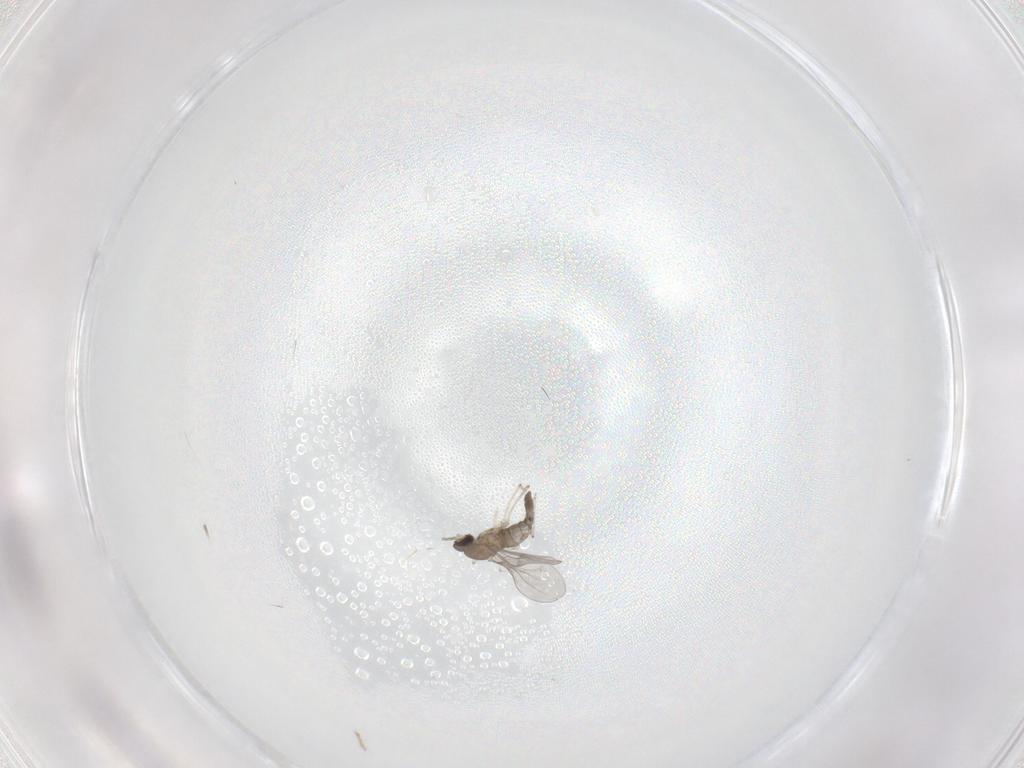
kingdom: Animalia
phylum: Arthropoda
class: Insecta
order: Diptera
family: Cecidomyiidae
